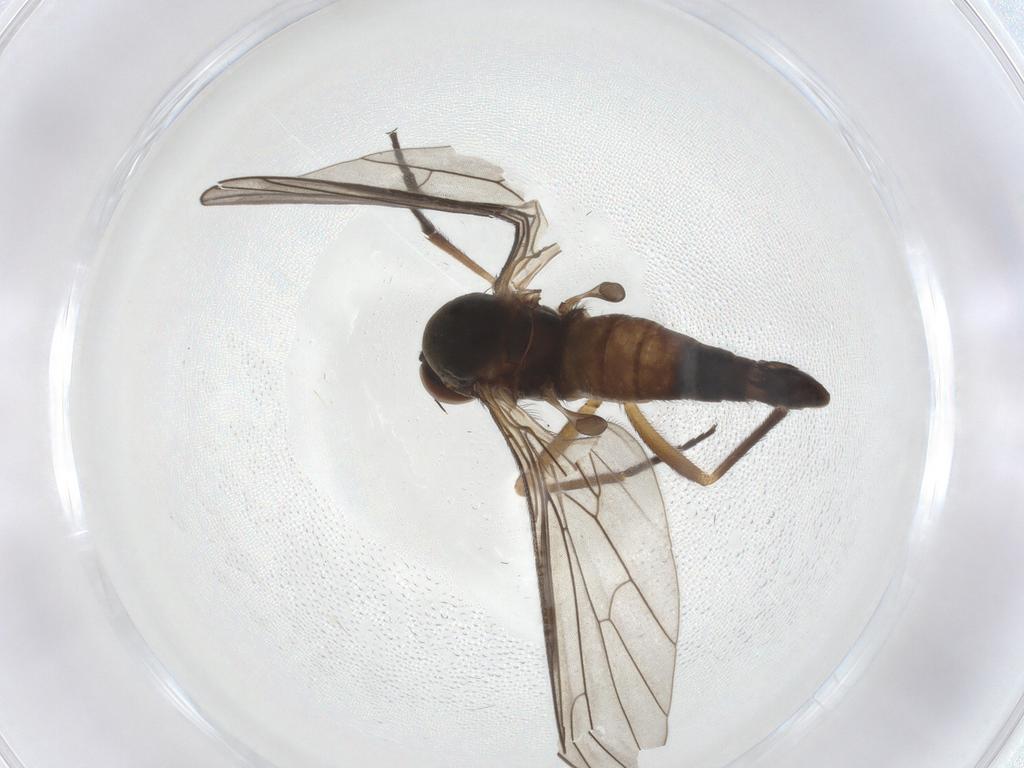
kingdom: Animalia
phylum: Arthropoda
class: Insecta
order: Diptera
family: Empididae
